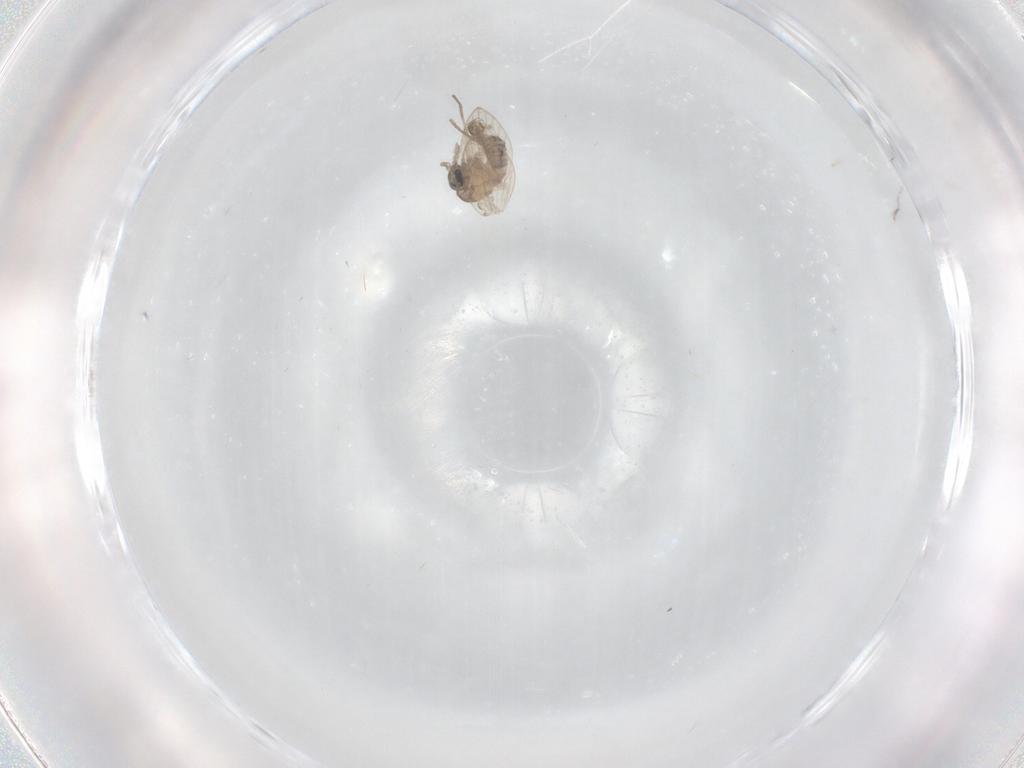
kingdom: Animalia
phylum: Arthropoda
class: Insecta
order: Diptera
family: Psychodidae
